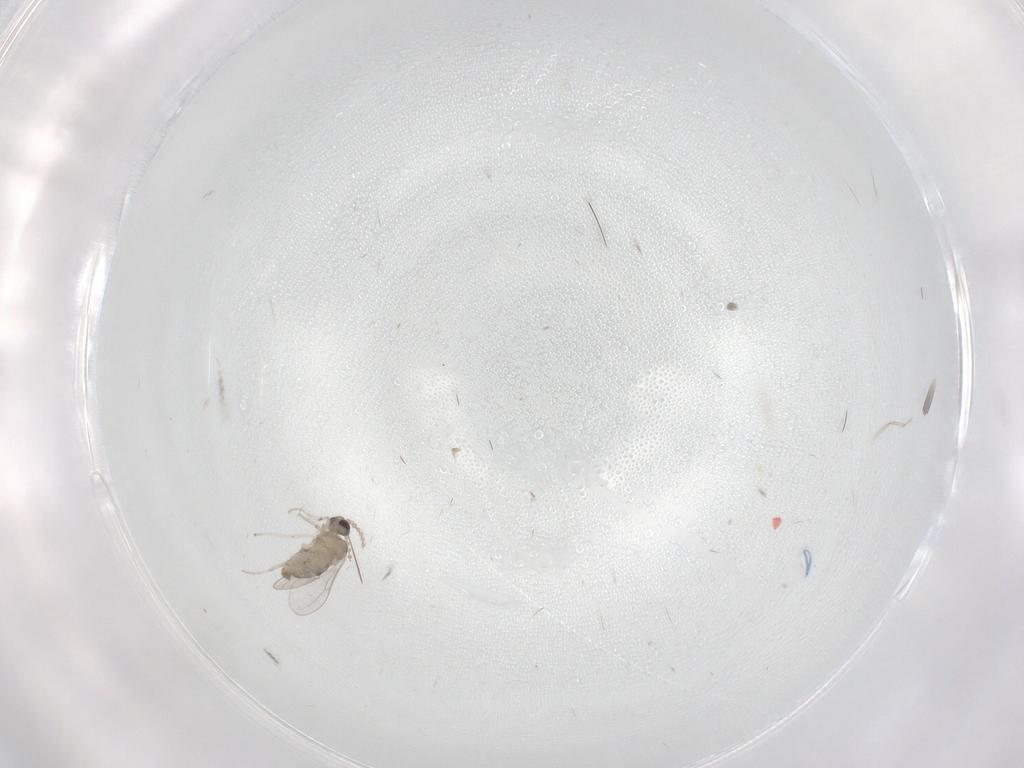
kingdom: Animalia
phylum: Arthropoda
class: Insecta
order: Diptera
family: Cecidomyiidae
